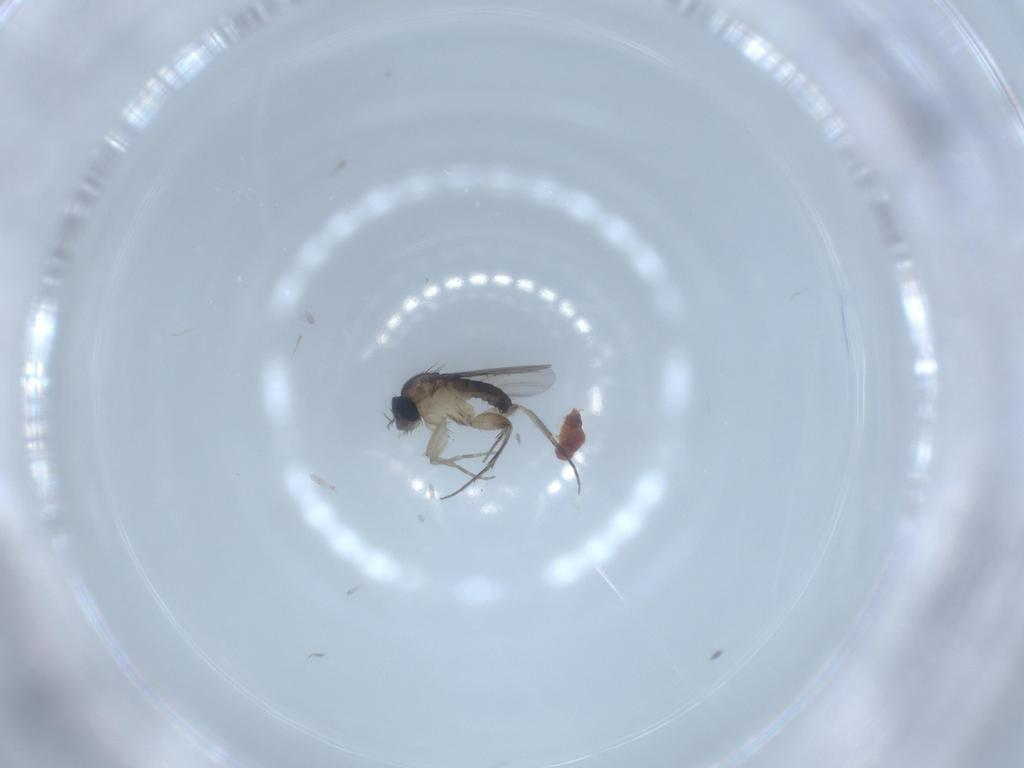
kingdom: Animalia
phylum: Arthropoda
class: Insecta
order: Diptera
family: Phoridae
